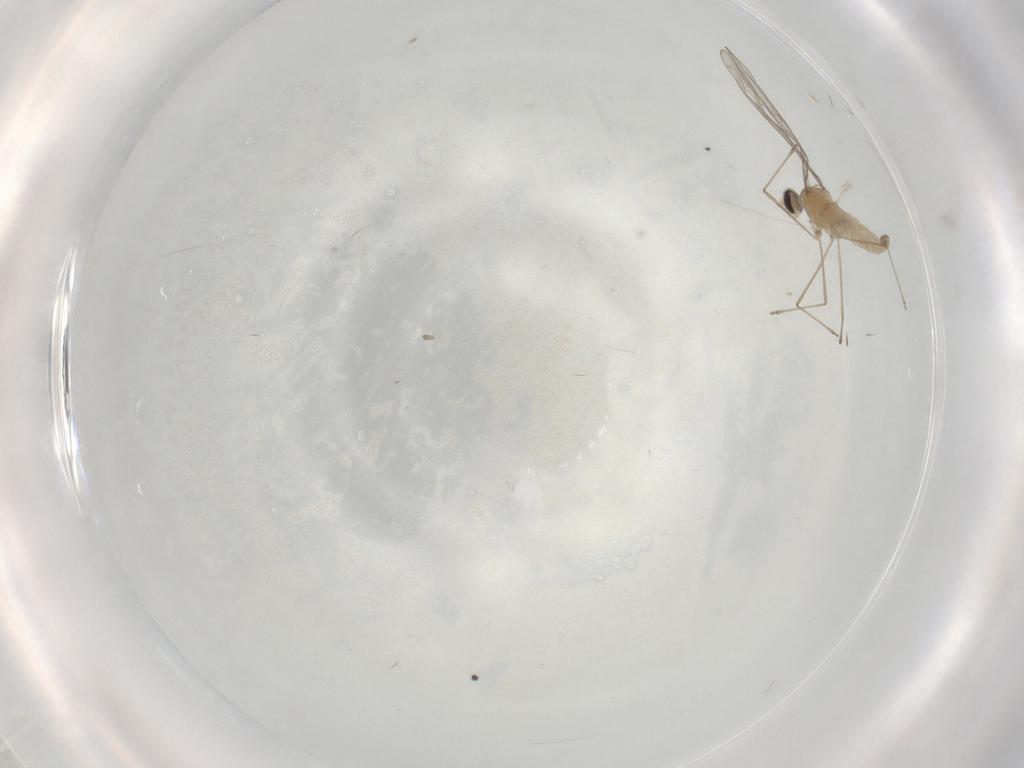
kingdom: Animalia
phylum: Arthropoda
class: Insecta
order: Diptera
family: Cecidomyiidae
